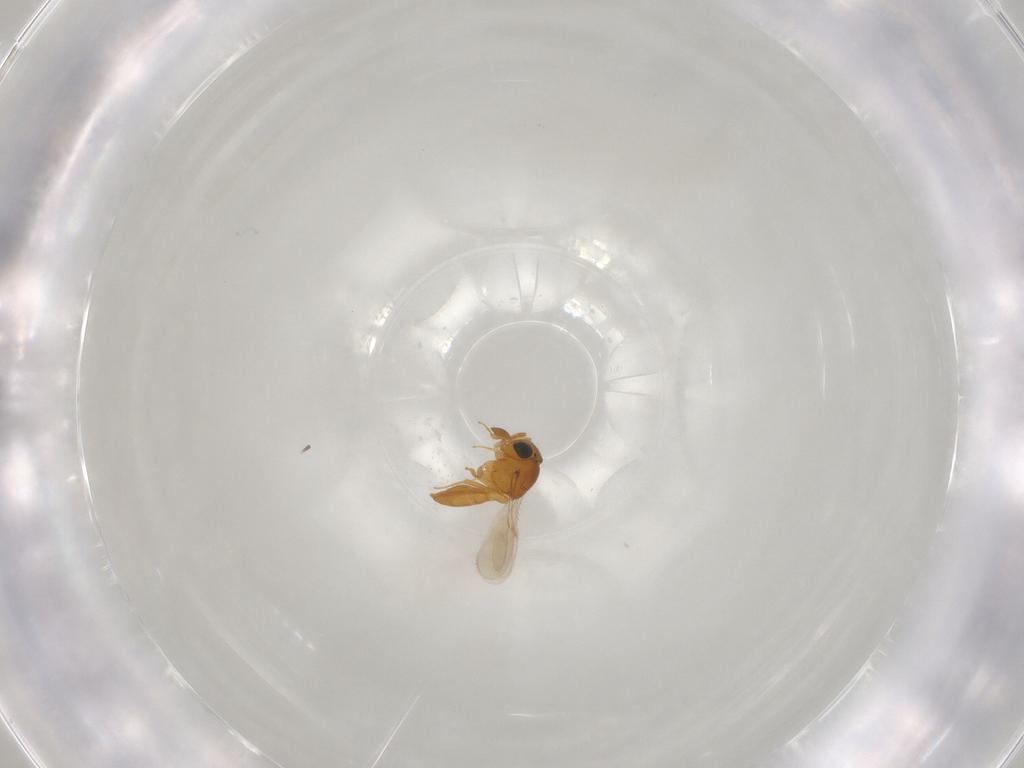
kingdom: Animalia
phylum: Arthropoda
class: Insecta
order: Hymenoptera
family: Scelionidae
